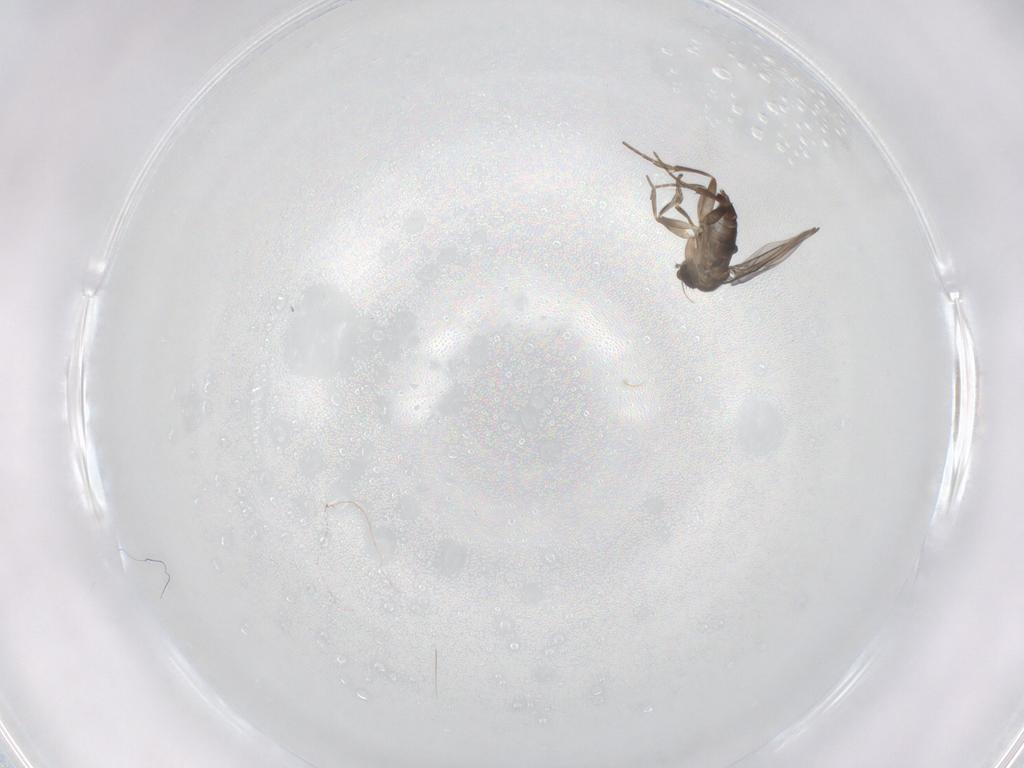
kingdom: Animalia
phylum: Arthropoda
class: Insecta
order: Diptera
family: Phoridae
